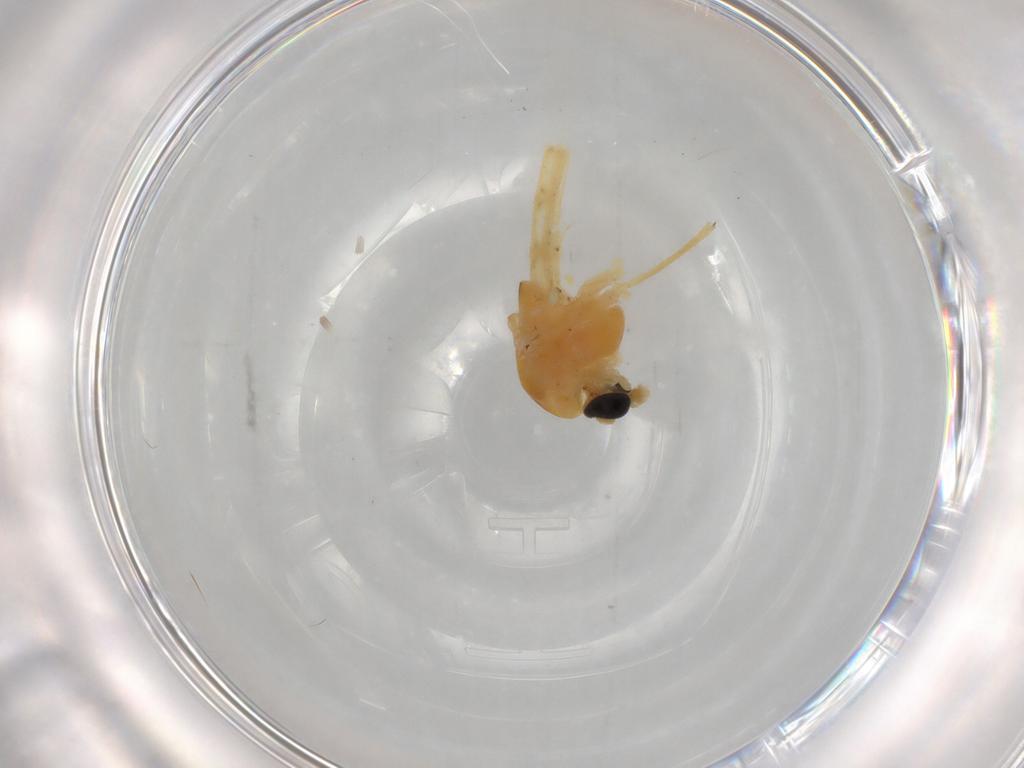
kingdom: Animalia
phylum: Arthropoda
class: Insecta
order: Diptera
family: Chironomidae
